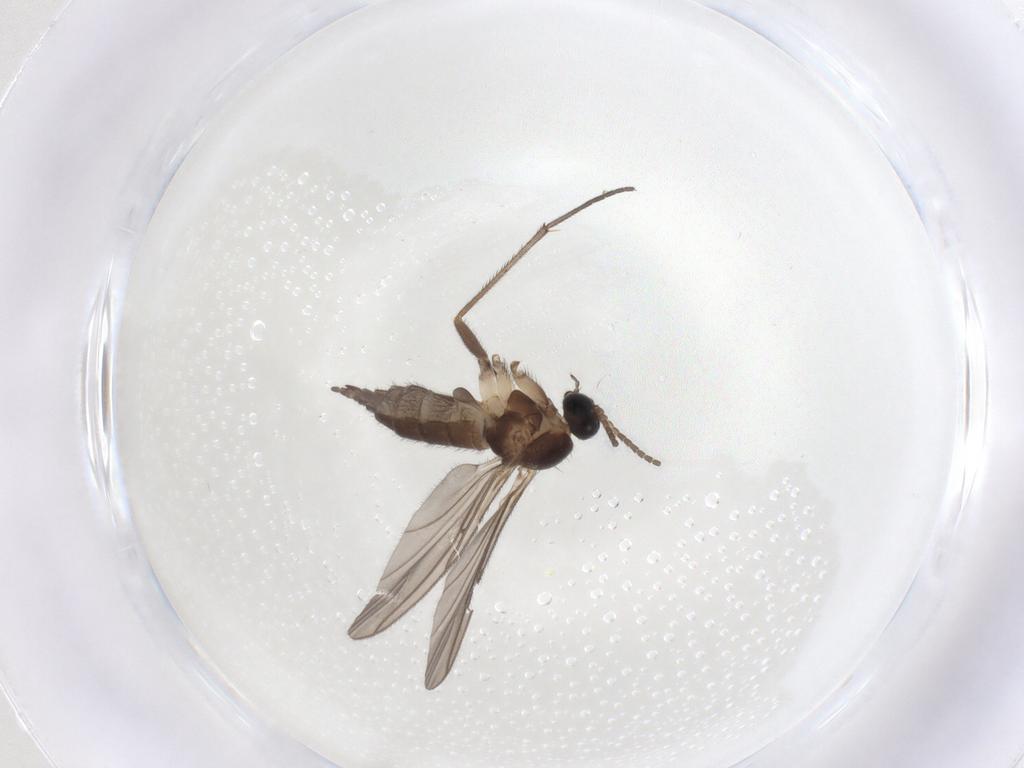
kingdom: Animalia
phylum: Arthropoda
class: Insecta
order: Diptera
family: Sciaridae
